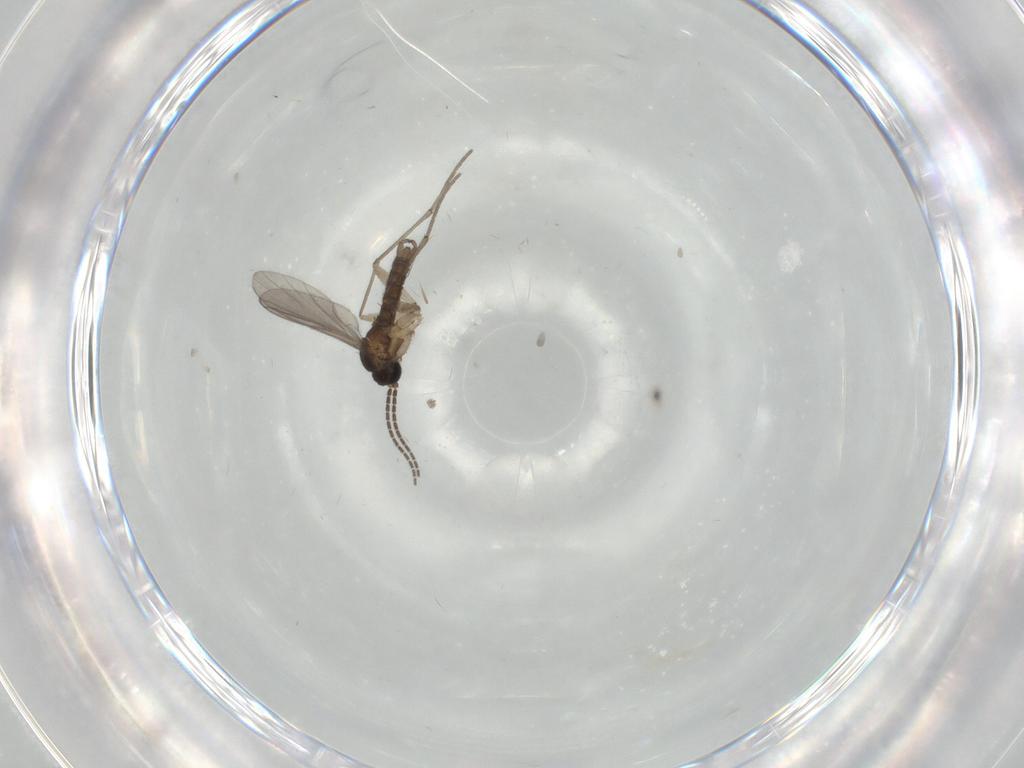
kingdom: Animalia
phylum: Arthropoda
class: Insecta
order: Diptera
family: Sciaridae
